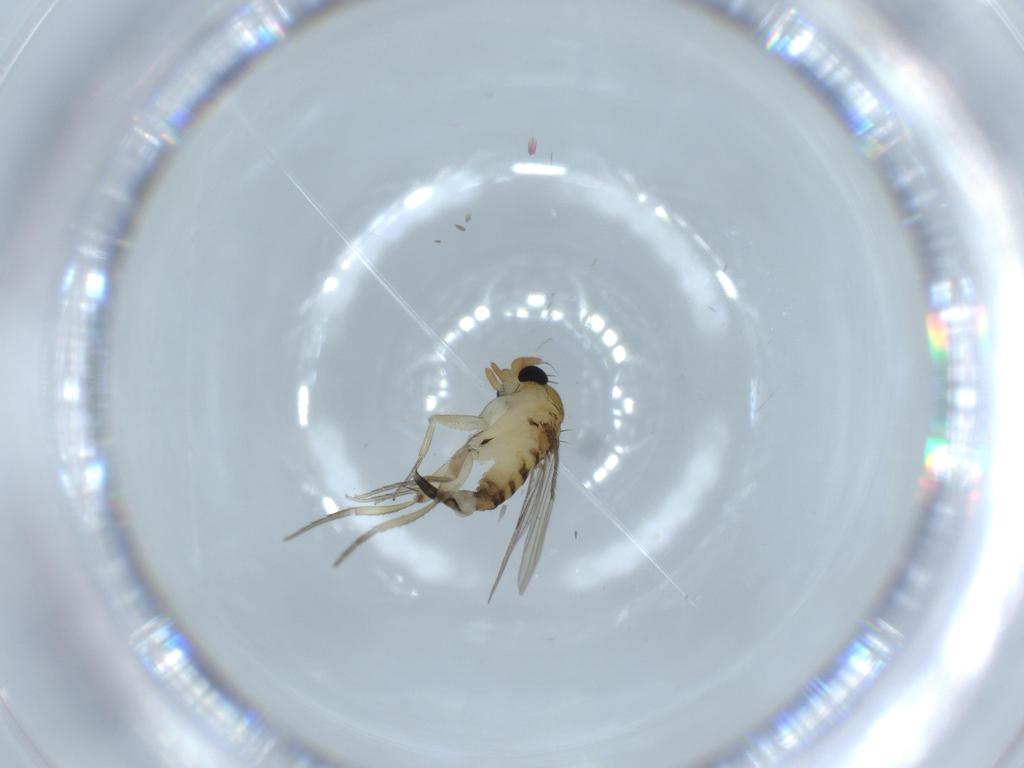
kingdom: Animalia
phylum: Arthropoda
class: Insecta
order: Diptera
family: Phoridae
